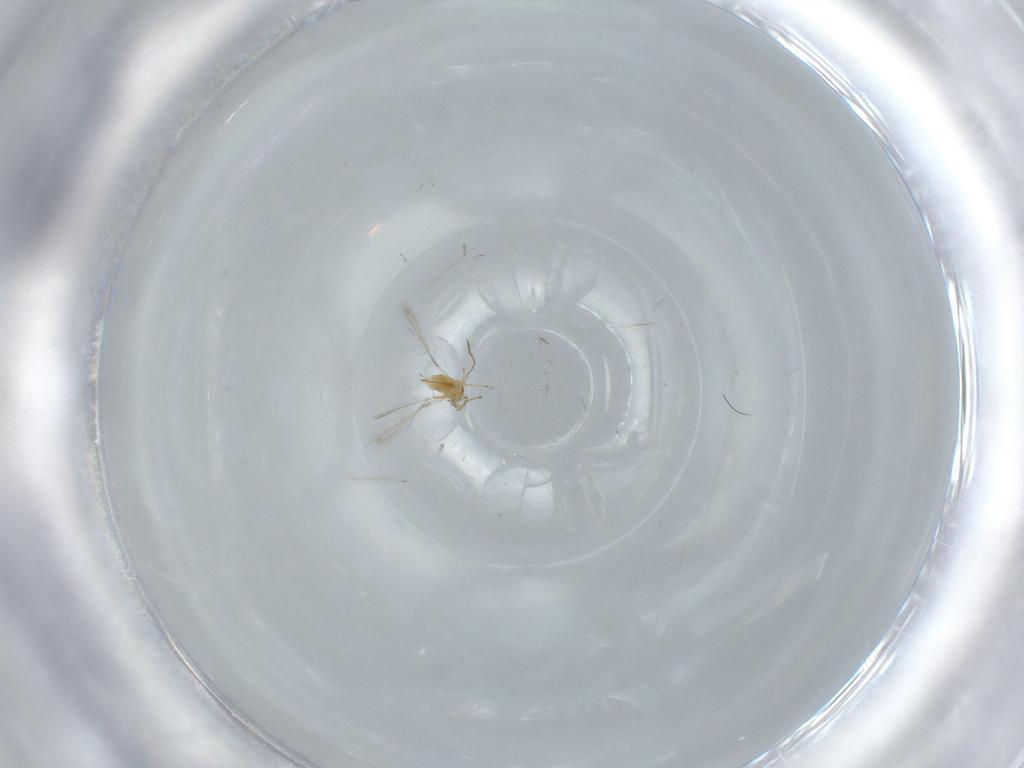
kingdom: Animalia
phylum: Arthropoda
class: Insecta
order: Hymenoptera
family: Mymaridae
